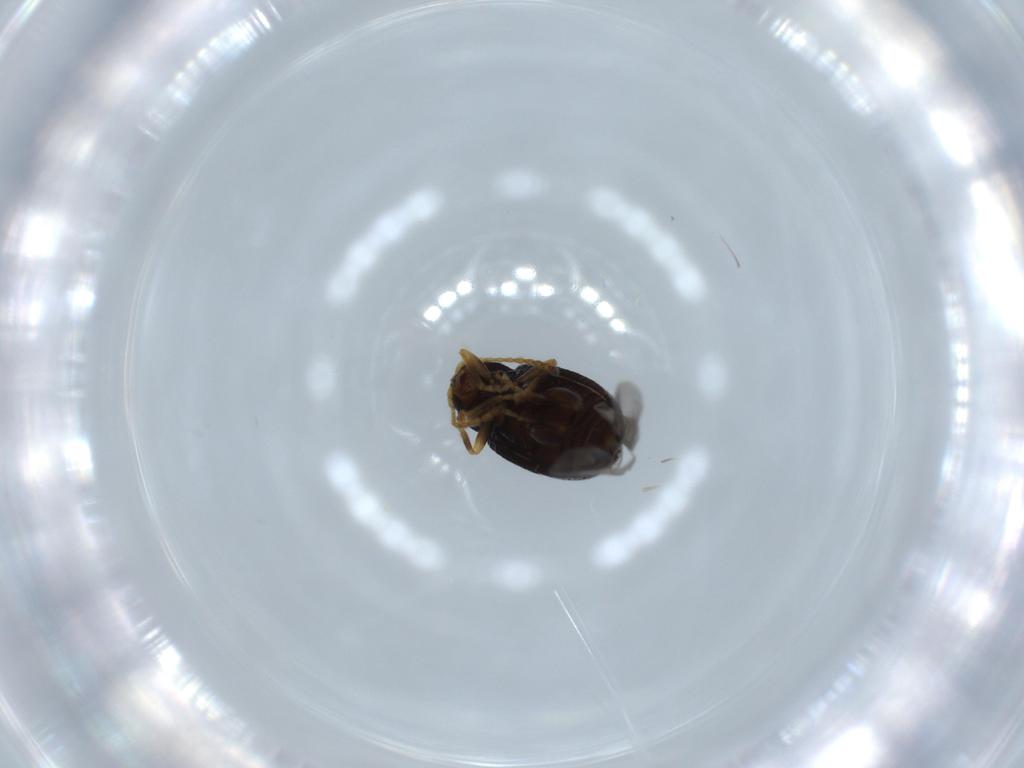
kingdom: Animalia
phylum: Arthropoda
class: Insecta
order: Coleoptera
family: Chrysomelidae
